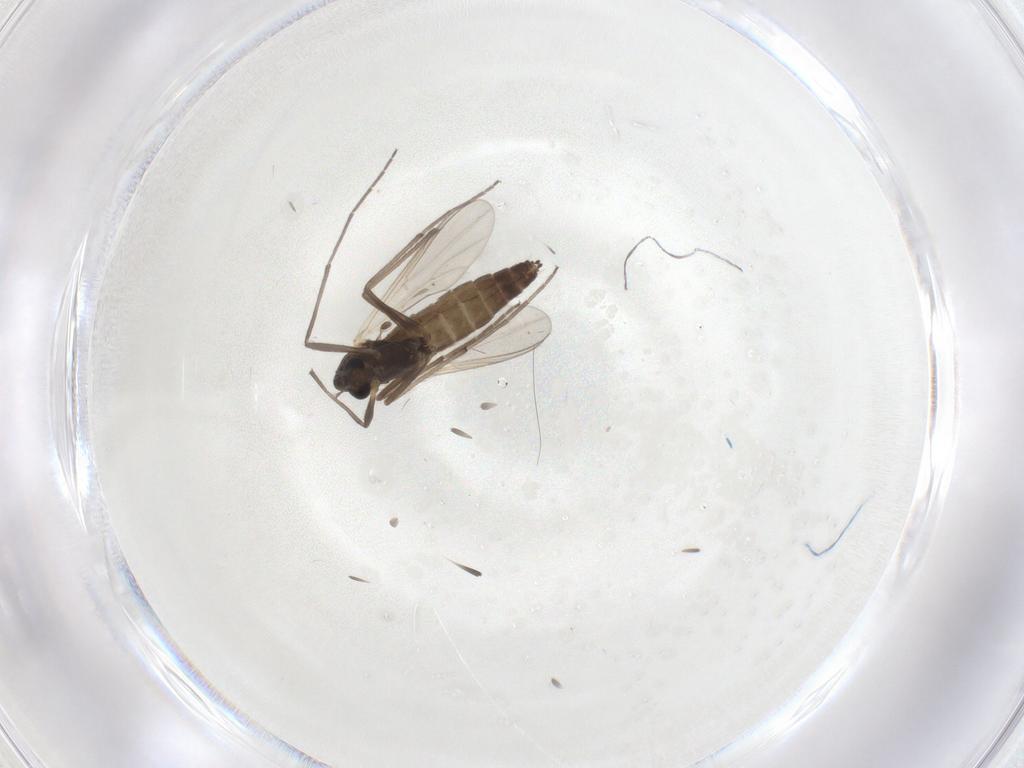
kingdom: Animalia
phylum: Arthropoda
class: Insecta
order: Diptera
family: Chironomidae
